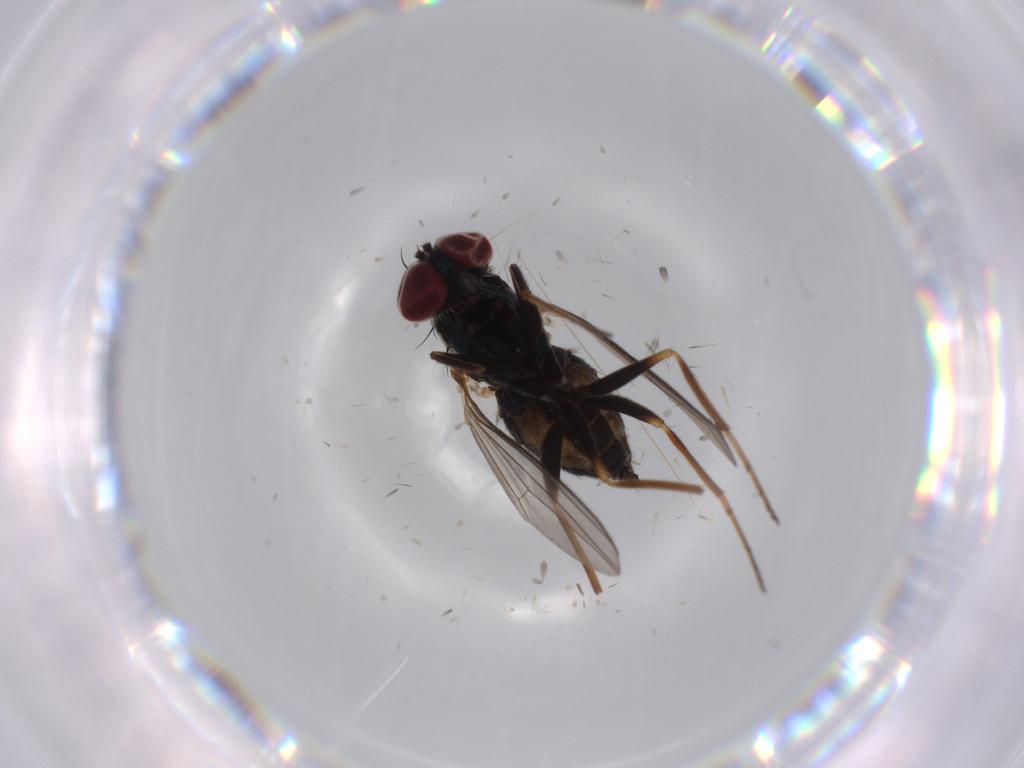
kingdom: Animalia
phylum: Arthropoda
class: Insecta
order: Diptera
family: Dolichopodidae
